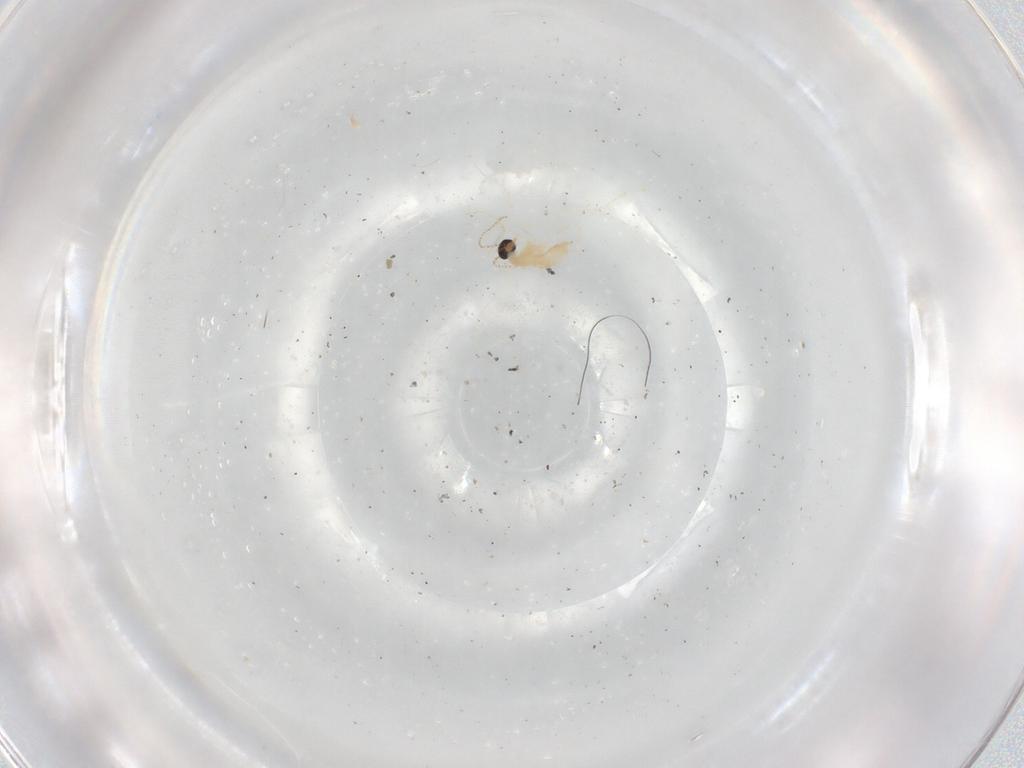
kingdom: Animalia
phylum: Arthropoda
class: Insecta
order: Diptera
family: Cecidomyiidae
